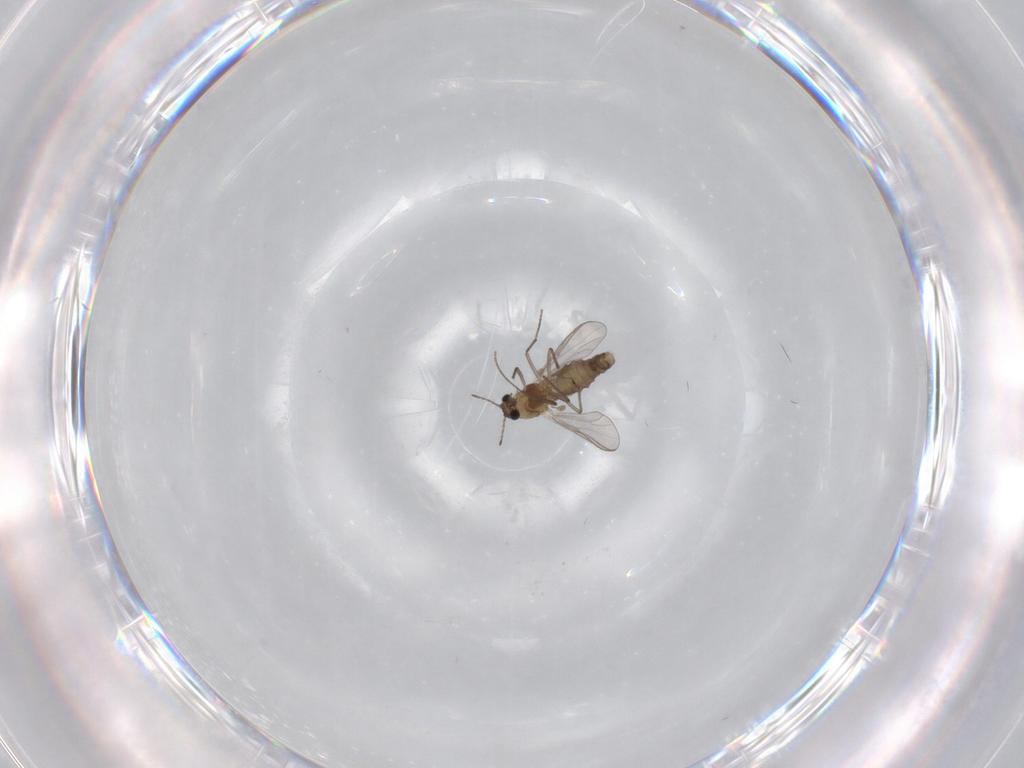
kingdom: Animalia
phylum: Arthropoda
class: Insecta
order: Diptera
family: Chironomidae
